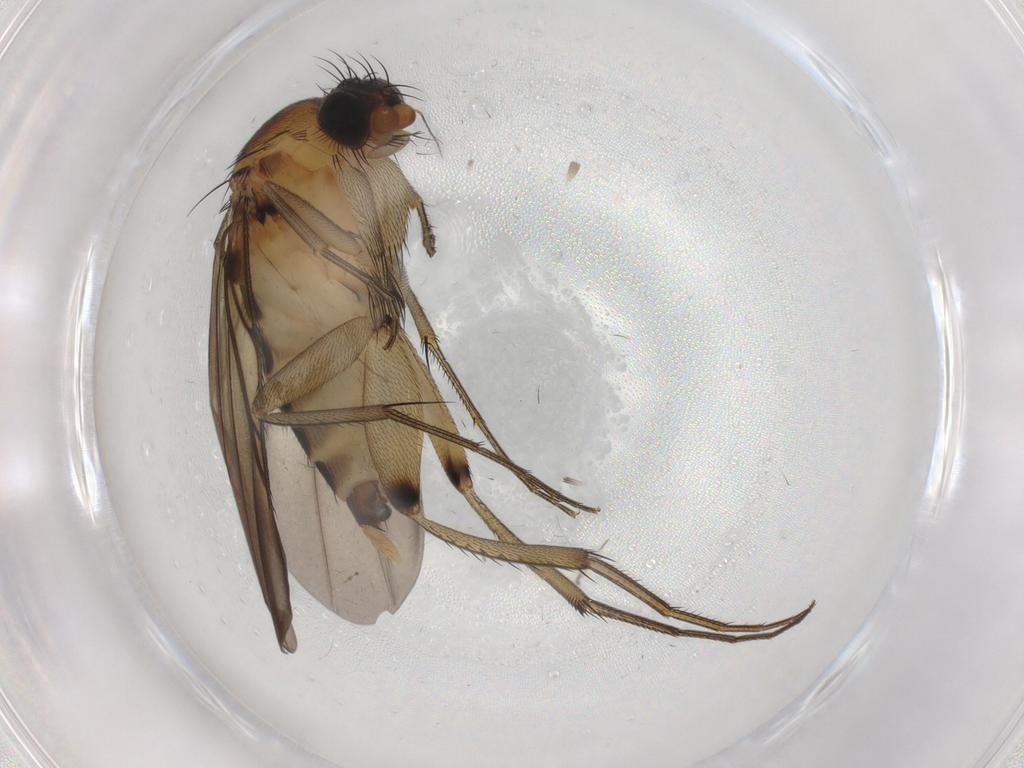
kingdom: Animalia
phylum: Arthropoda
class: Insecta
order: Diptera
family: Phoridae
